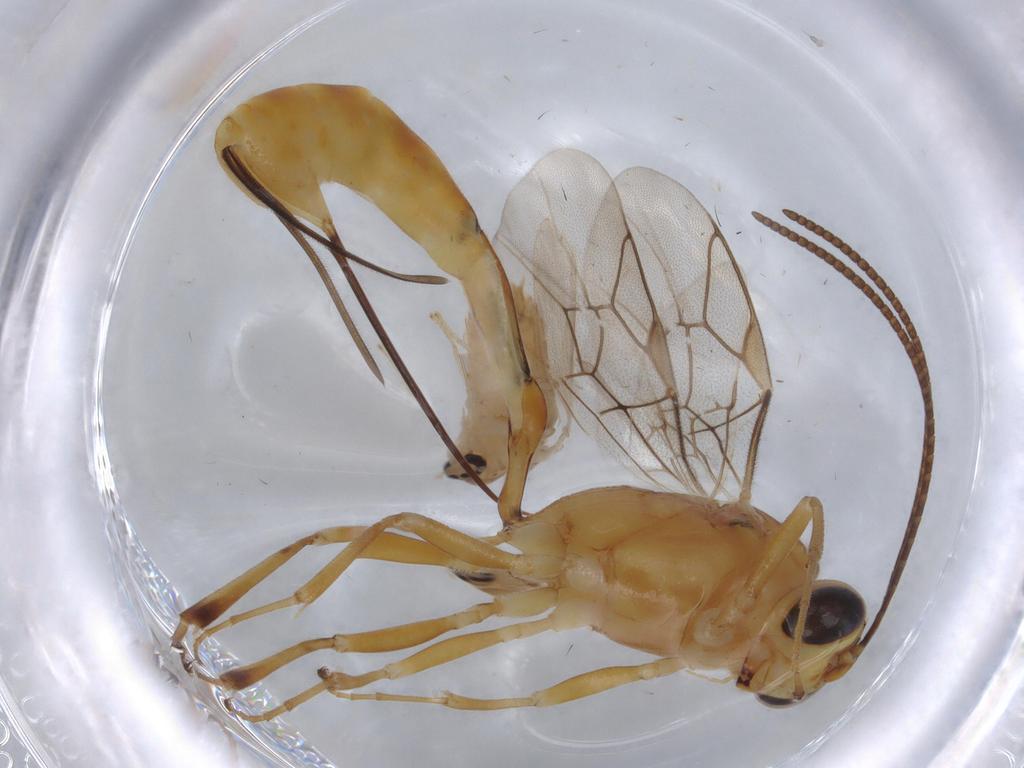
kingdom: Animalia
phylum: Arthropoda
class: Insecta
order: Hymenoptera
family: Ichneumonidae
